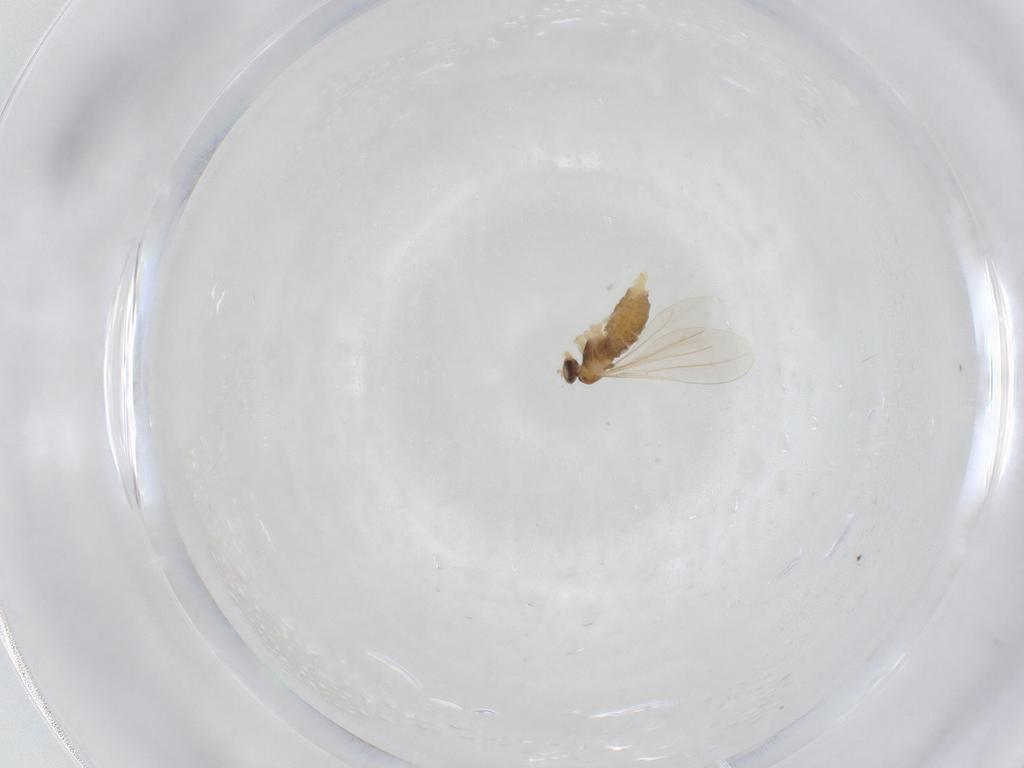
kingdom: Animalia
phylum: Arthropoda
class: Insecta
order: Diptera
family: Cecidomyiidae
